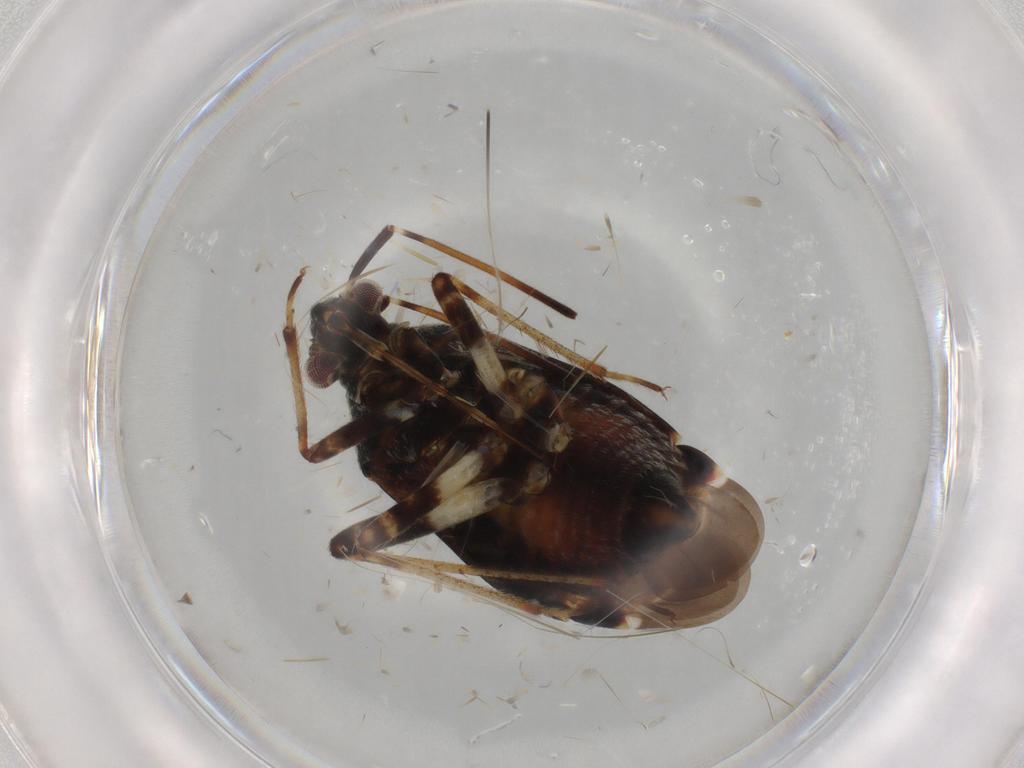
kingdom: Animalia
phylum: Arthropoda
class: Insecta
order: Hemiptera
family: Miridae
